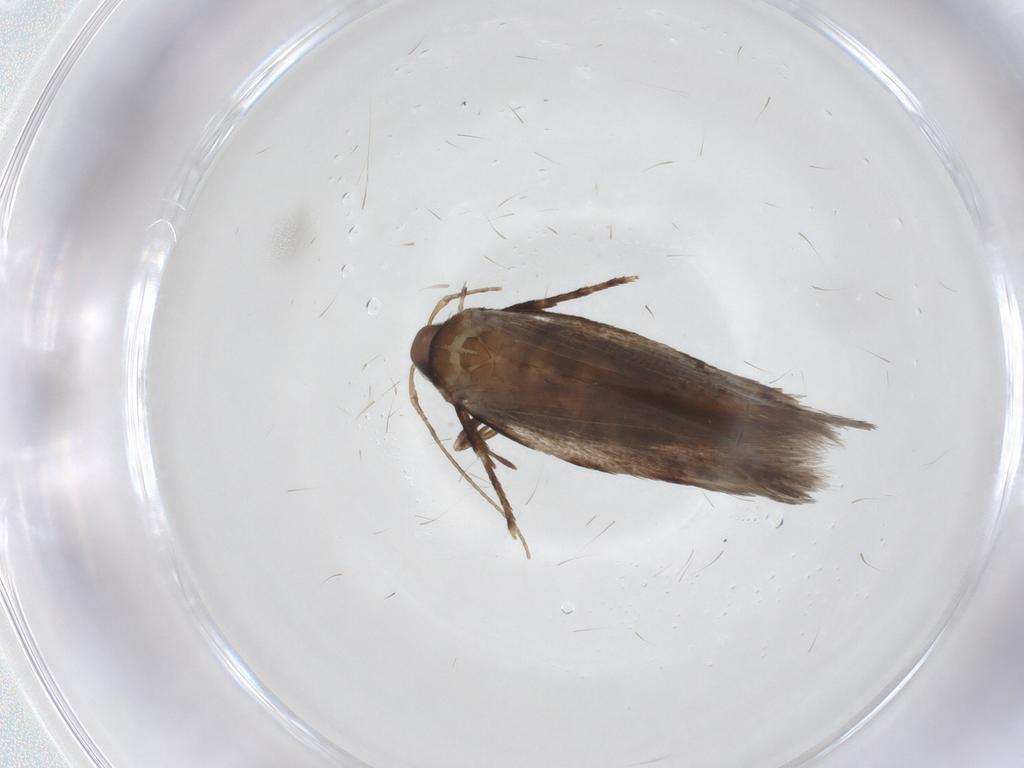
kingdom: Animalia
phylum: Arthropoda
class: Insecta
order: Lepidoptera
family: Gelechiidae
